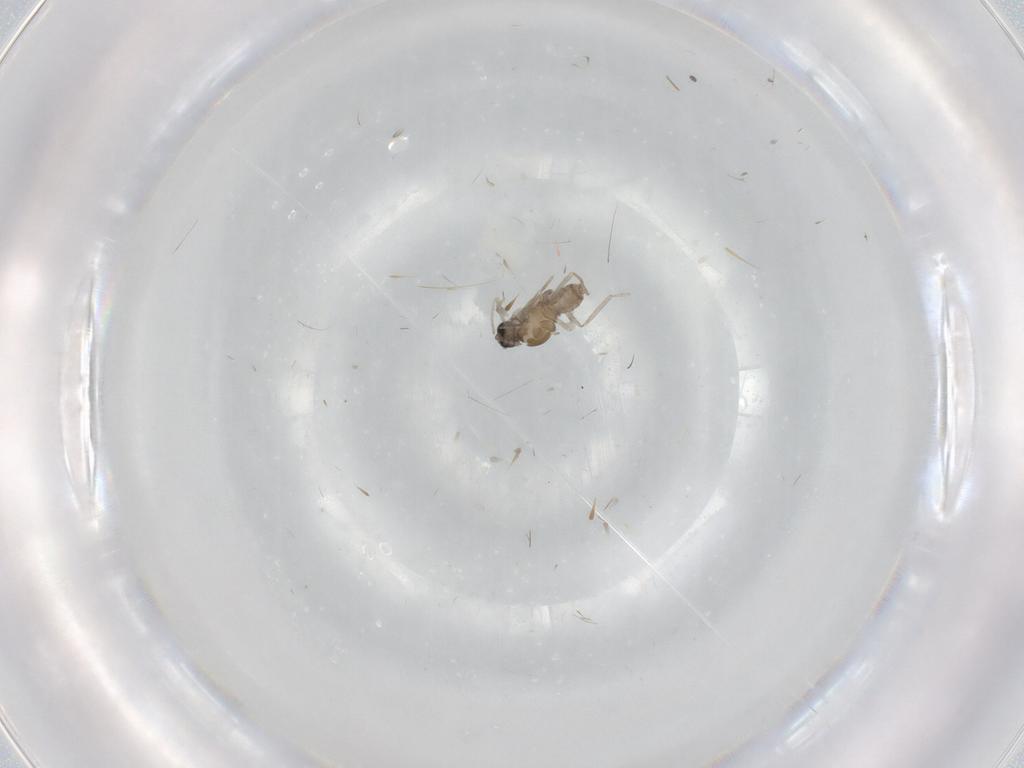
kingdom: Animalia
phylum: Arthropoda
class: Insecta
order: Diptera
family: Cecidomyiidae
